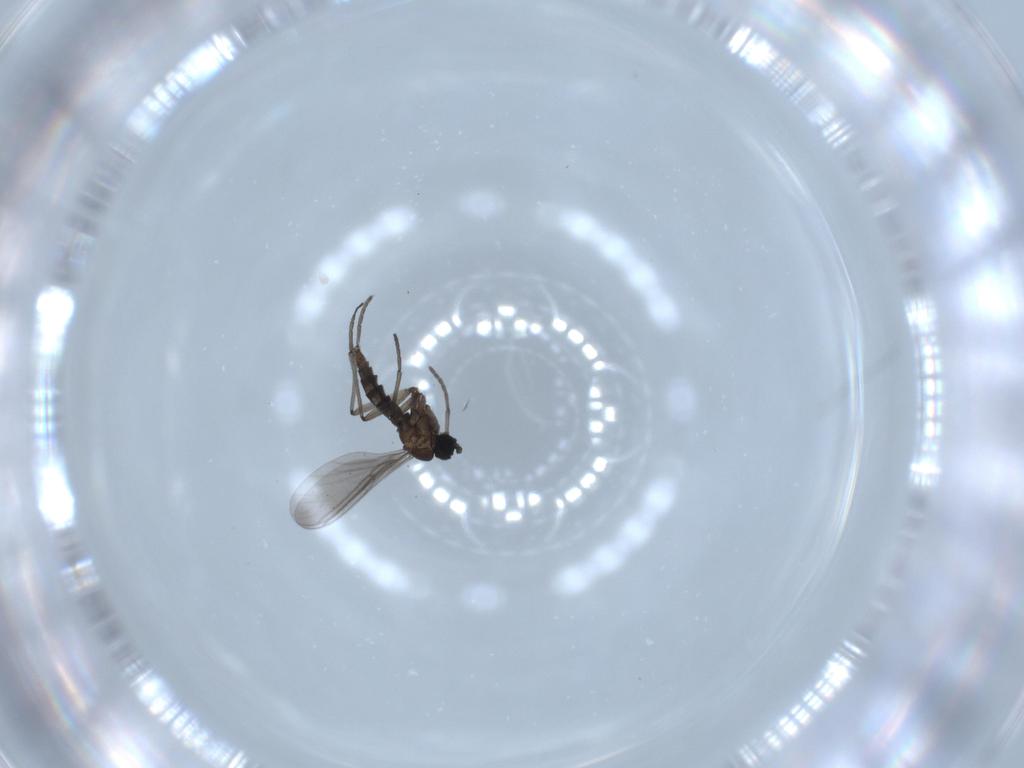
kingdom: Animalia
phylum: Arthropoda
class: Insecta
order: Diptera
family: Sciaridae
